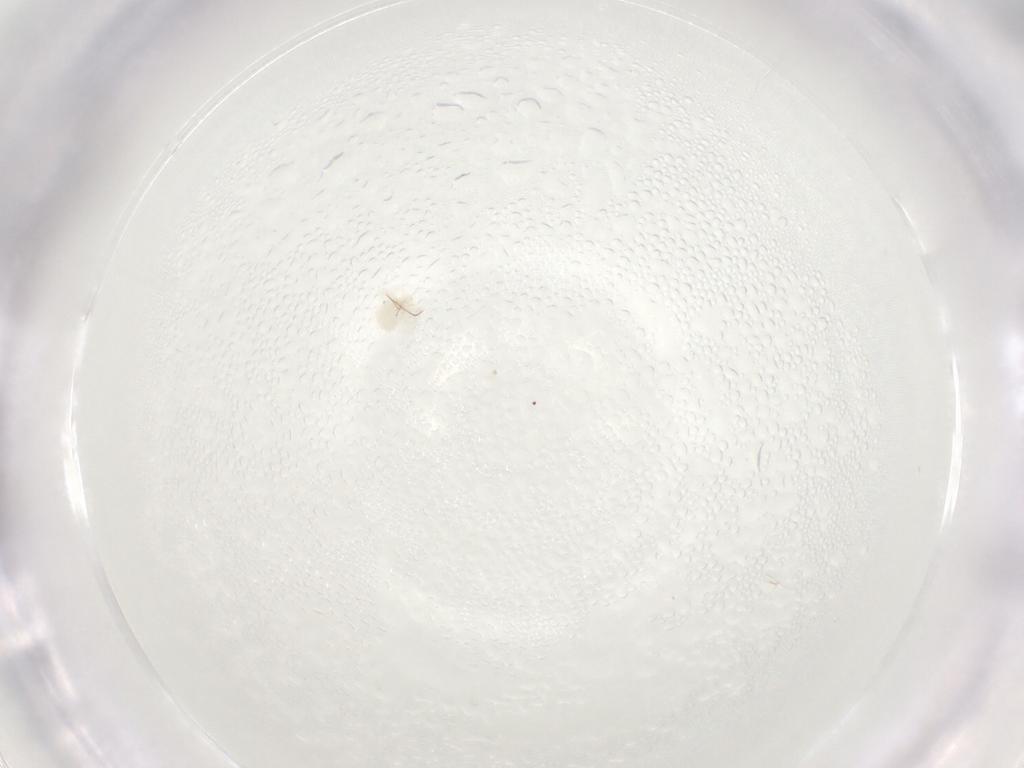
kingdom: Animalia
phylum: Arthropoda
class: Arachnida
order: Trombidiformes
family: Anystidae
